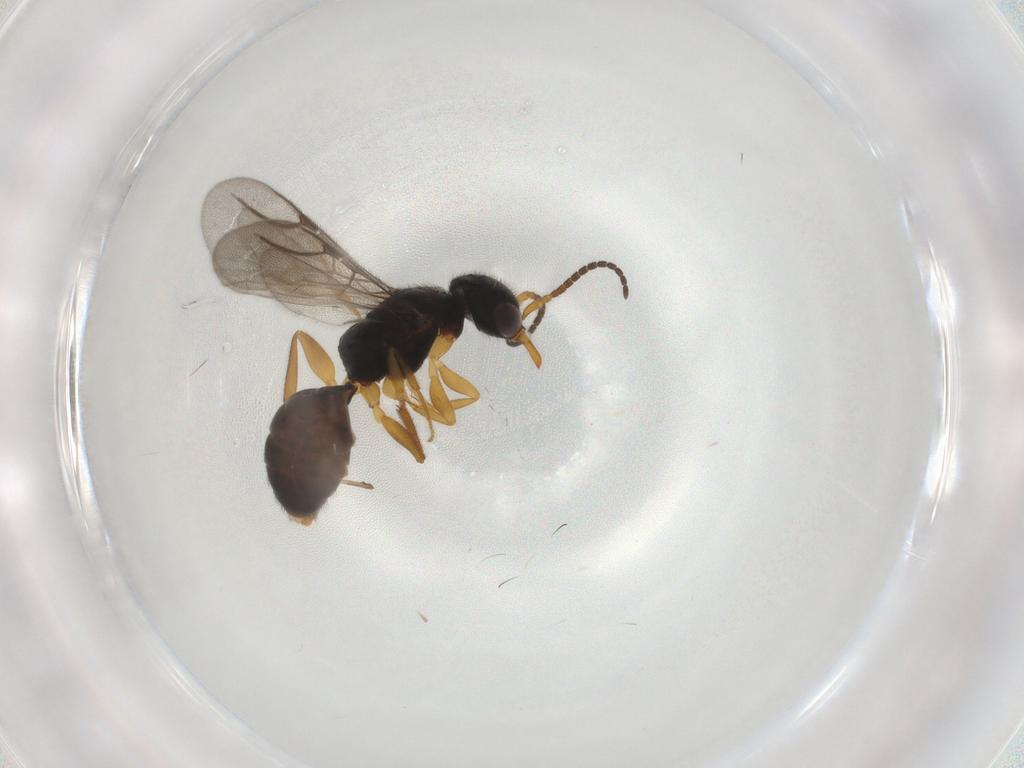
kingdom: Animalia
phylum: Arthropoda
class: Insecta
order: Hymenoptera
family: Bethylidae
